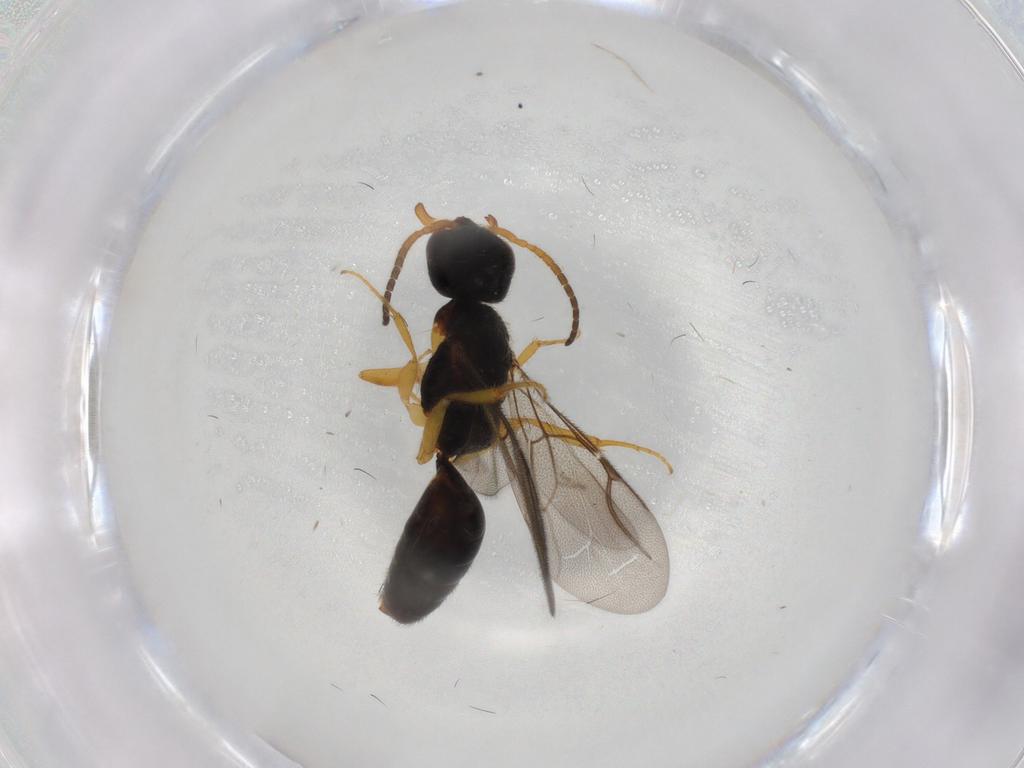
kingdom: Animalia
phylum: Arthropoda
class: Insecta
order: Hymenoptera
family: Bethylidae
